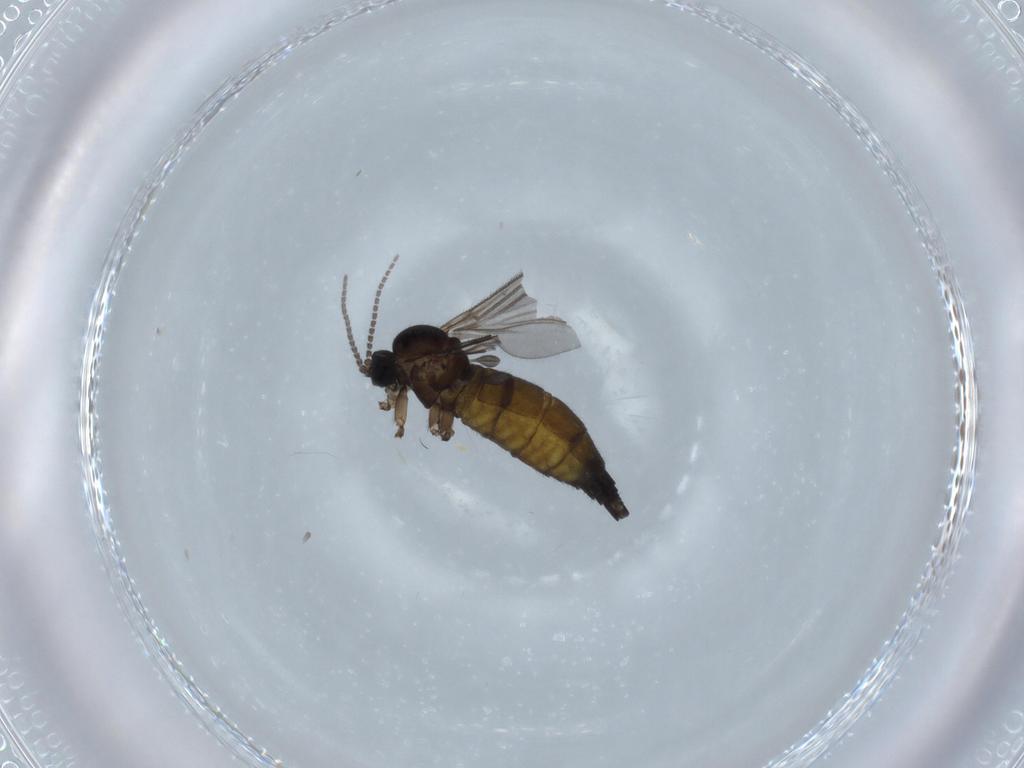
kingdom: Animalia
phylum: Arthropoda
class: Insecta
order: Diptera
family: Sciaridae
